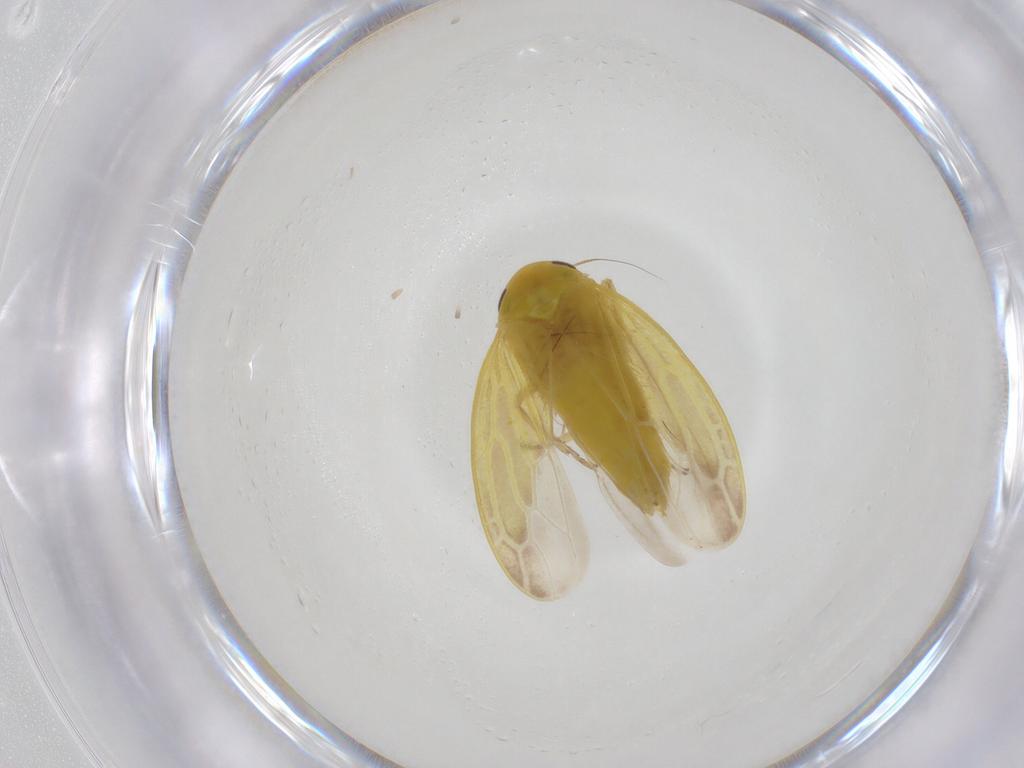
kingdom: Animalia
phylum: Arthropoda
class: Insecta
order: Hemiptera
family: Cicadellidae
